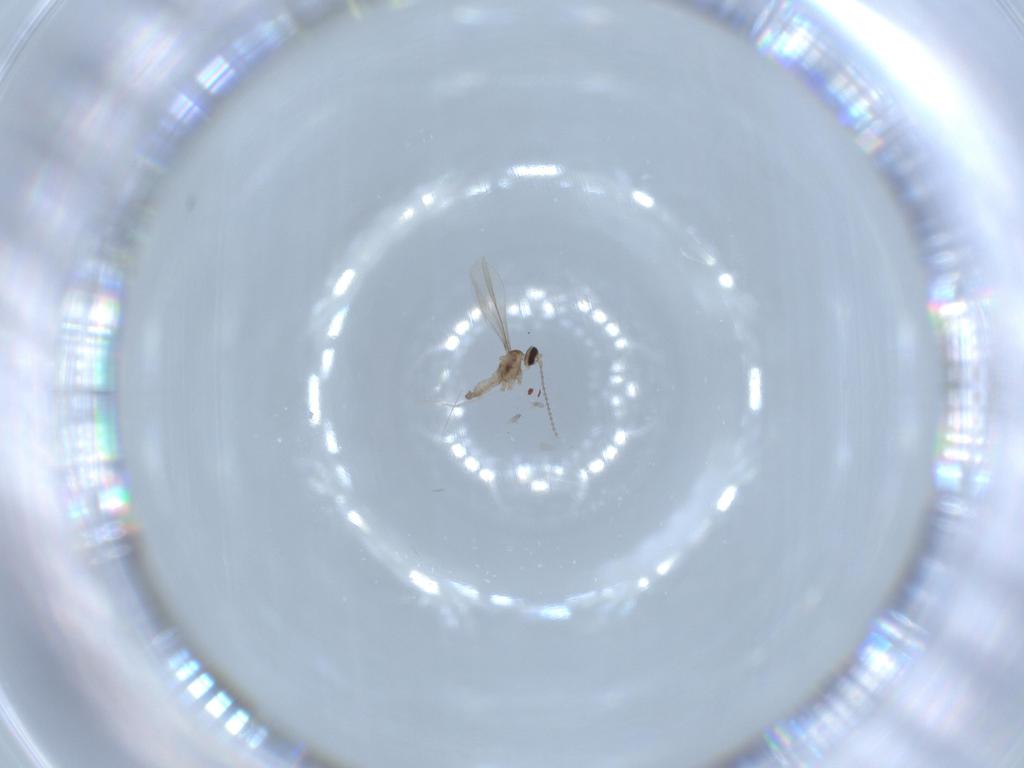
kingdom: Animalia
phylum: Arthropoda
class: Insecta
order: Diptera
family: Cecidomyiidae
